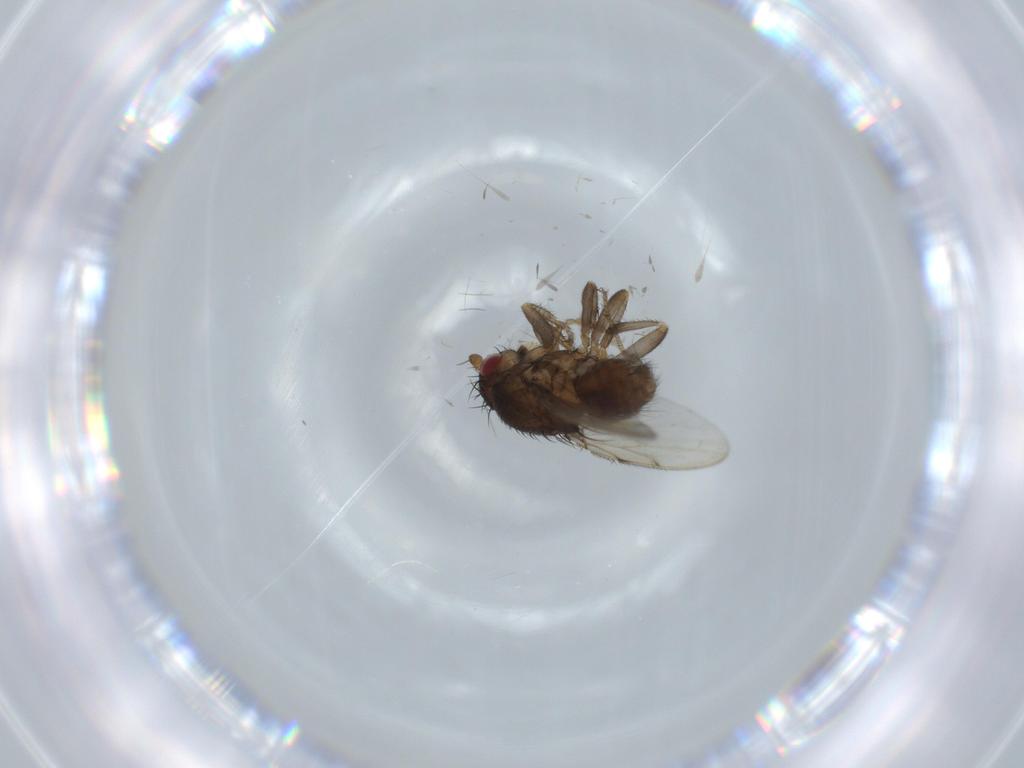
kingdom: Animalia
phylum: Arthropoda
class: Insecta
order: Diptera
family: Sphaeroceridae
